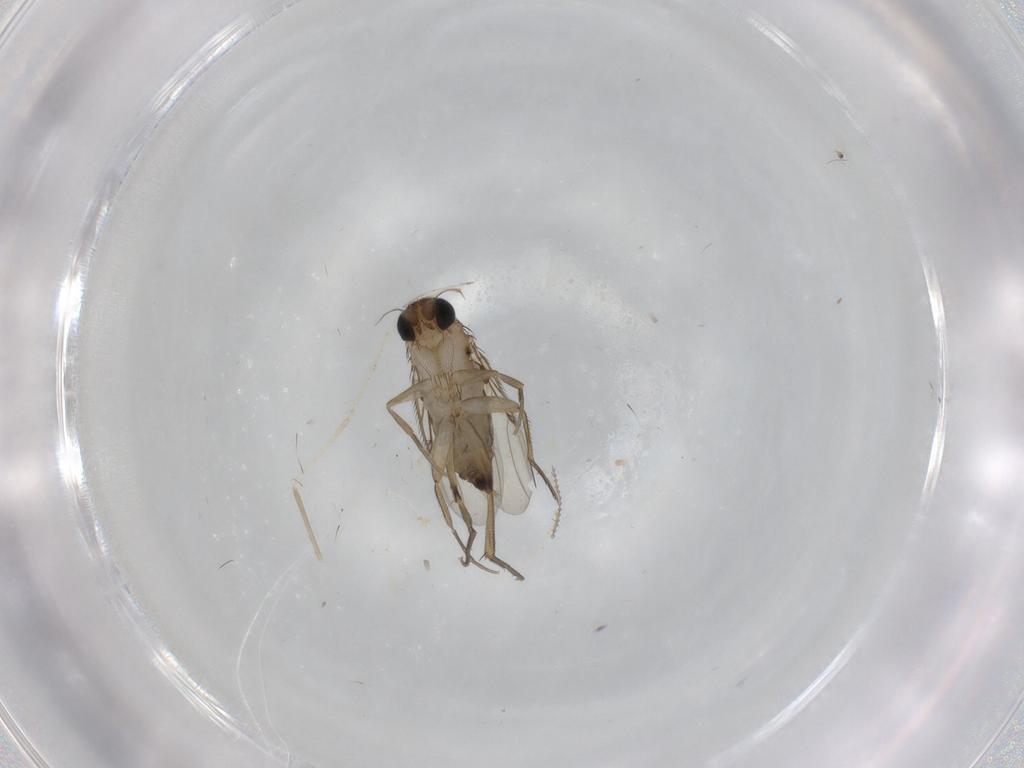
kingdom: Animalia
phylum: Arthropoda
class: Insecta
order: Diptera
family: Phoridae
